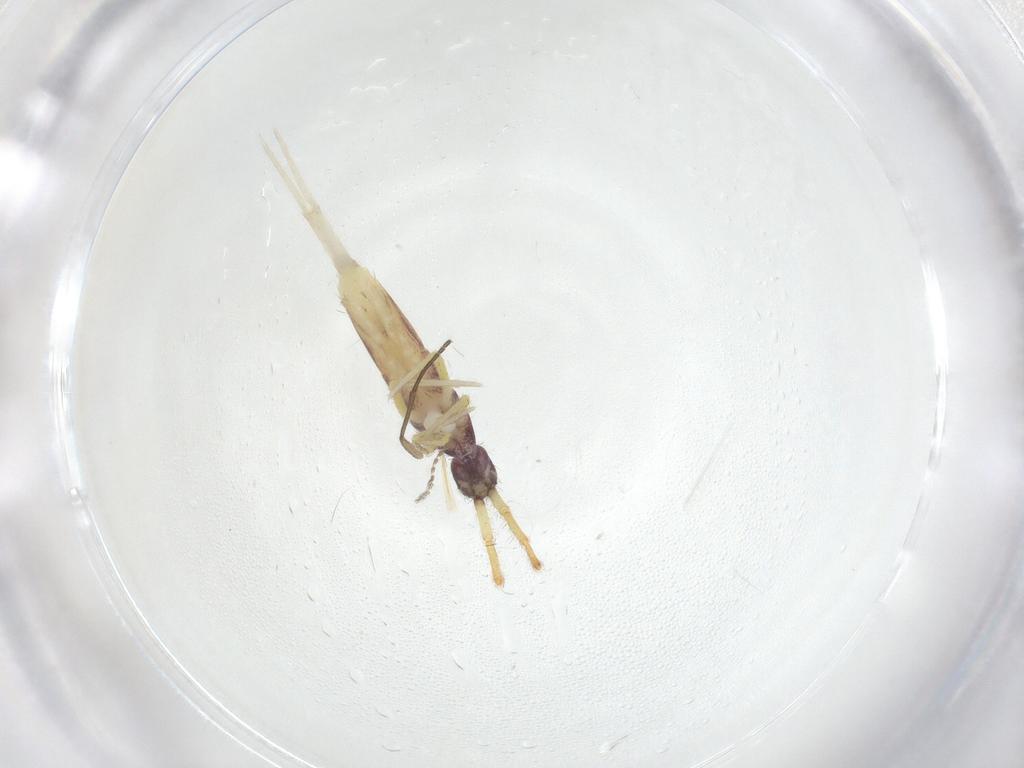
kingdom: Animalia
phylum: Arthropoda
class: Collembola
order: Entomobryomorpha
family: Entomobryidae
